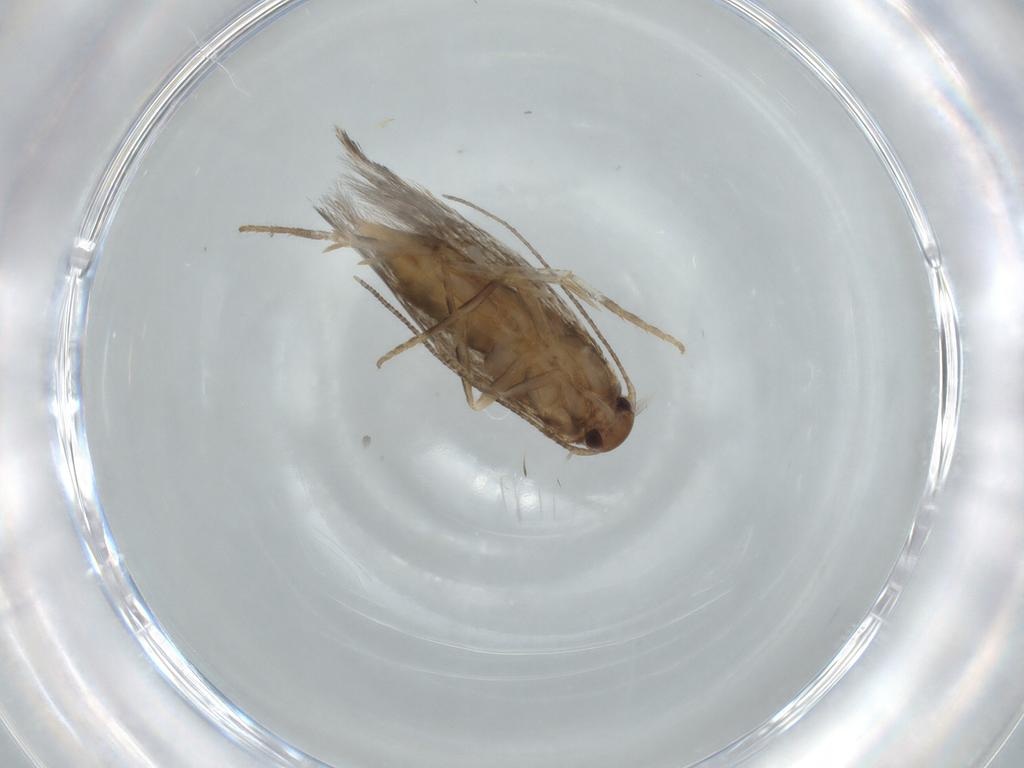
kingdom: Animalia
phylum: Arthropoda
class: Insecta
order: Lepidoptera
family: Elachistidae
